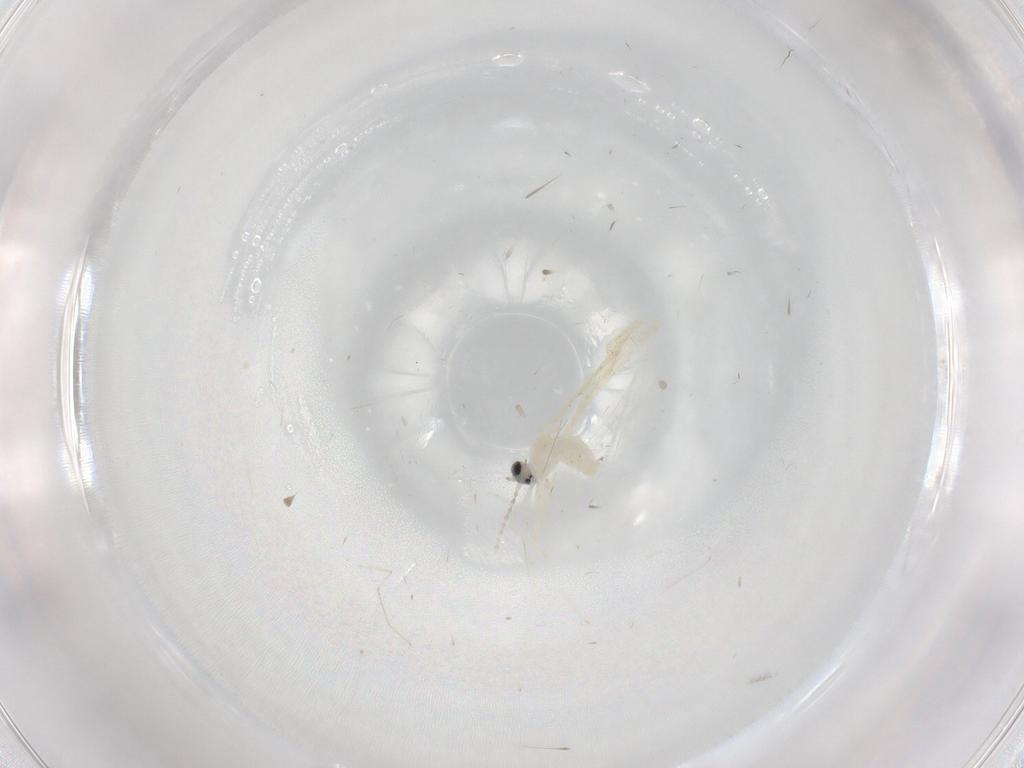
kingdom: Animalia
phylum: Arthropoda
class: Insecta
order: Diptera
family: Cecidomyiidae
